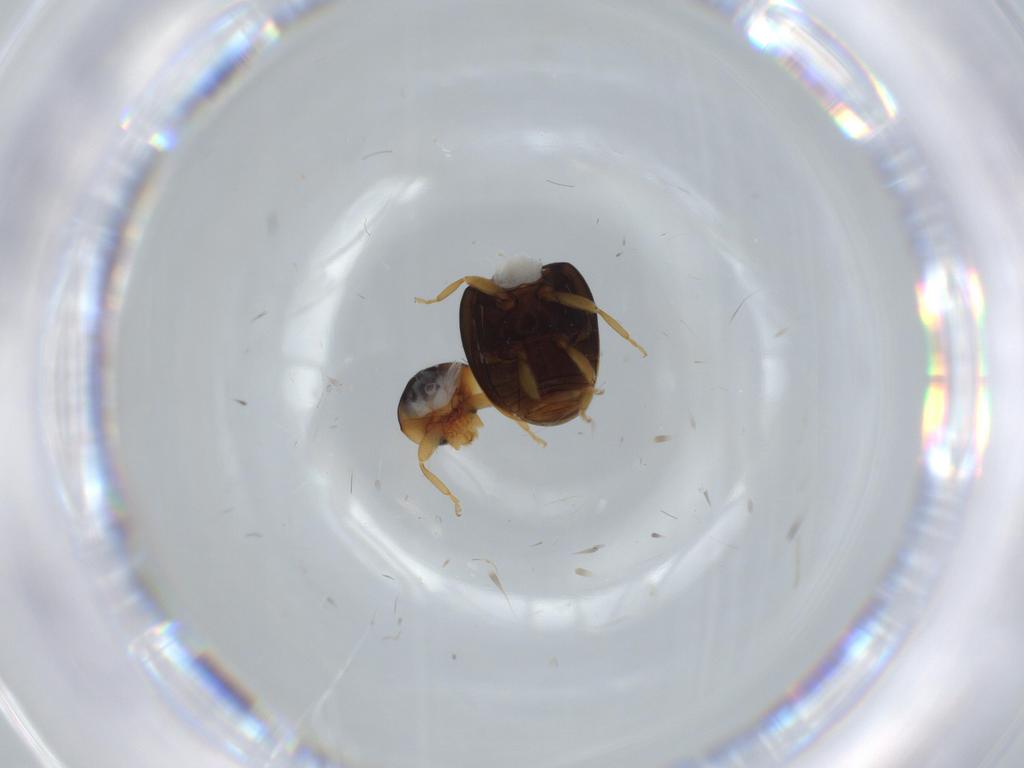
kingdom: Animalia
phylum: Arthropoda
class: Insecta
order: Coleoptera
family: Coccinellidae
